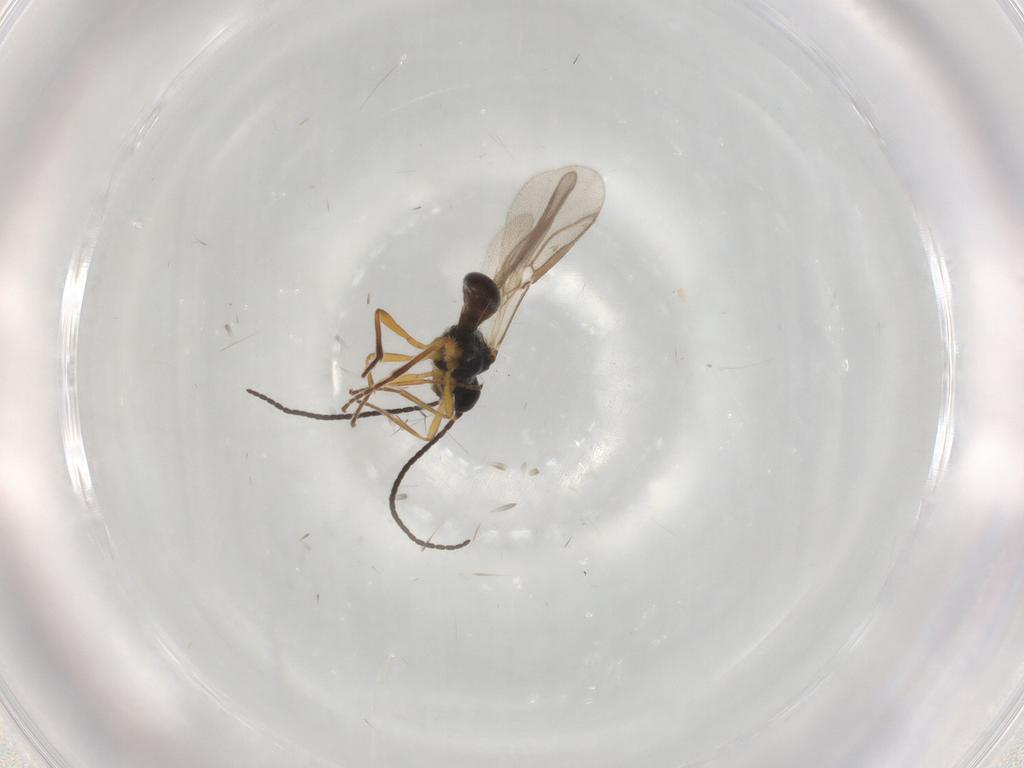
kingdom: Animalia
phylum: Arthropoda
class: Insecta
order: Hymenoptera
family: Braconidae
